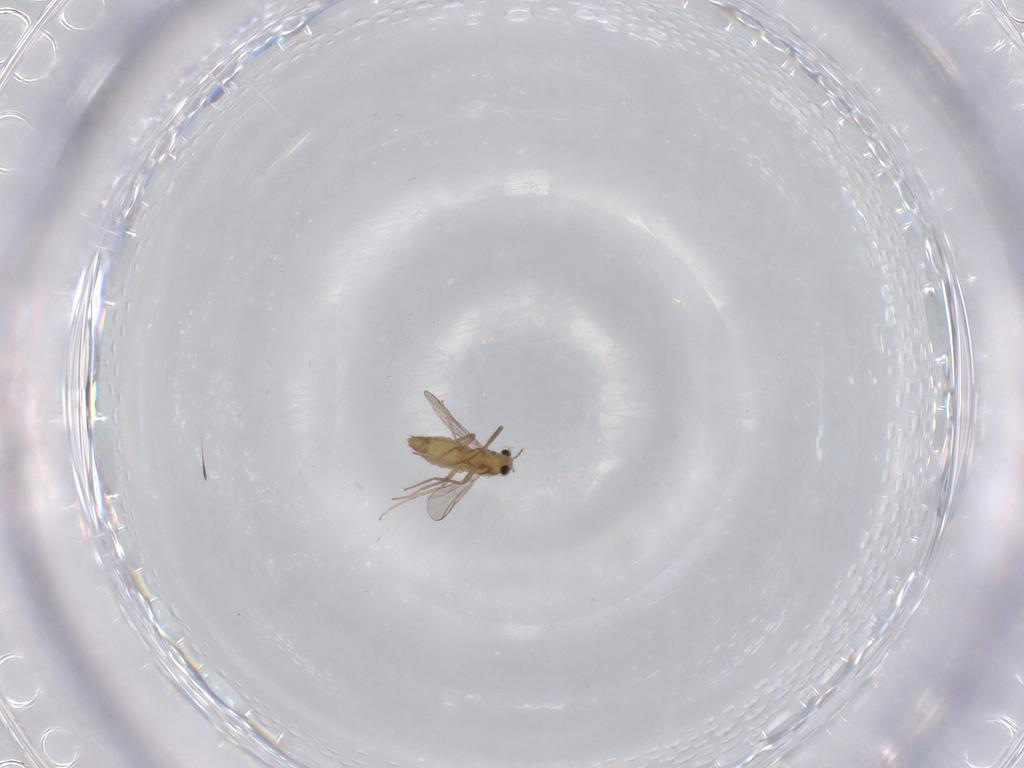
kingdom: Animalia
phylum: Arthropoda
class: Insecta
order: Diptera
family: Chironomidae
